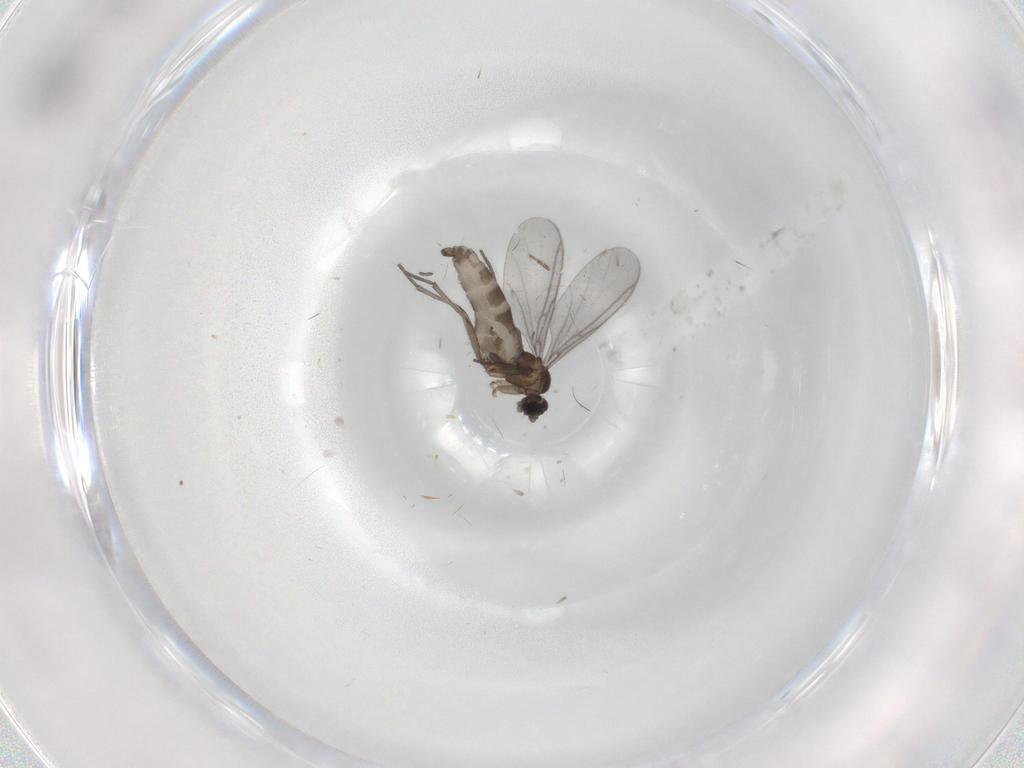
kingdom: Animalia
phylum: Arthropoda
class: Insecta
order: Diptera
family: Phoridae
